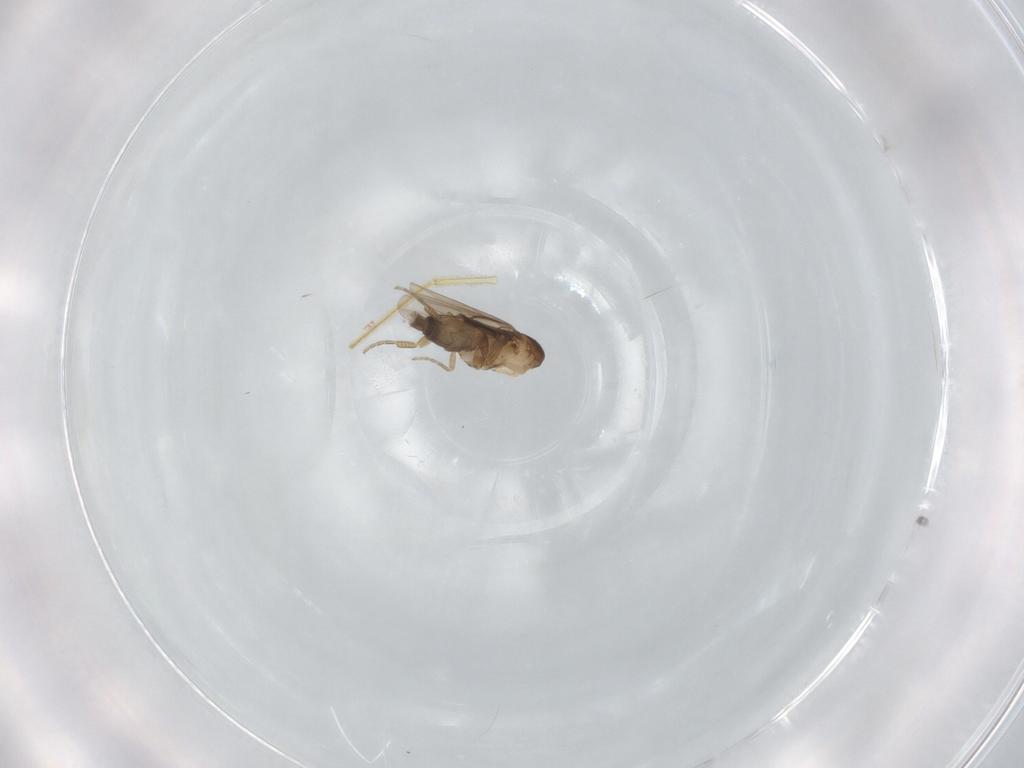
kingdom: Animalia
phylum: Arthropoda
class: Insecta
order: Diptera
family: Phoridae
